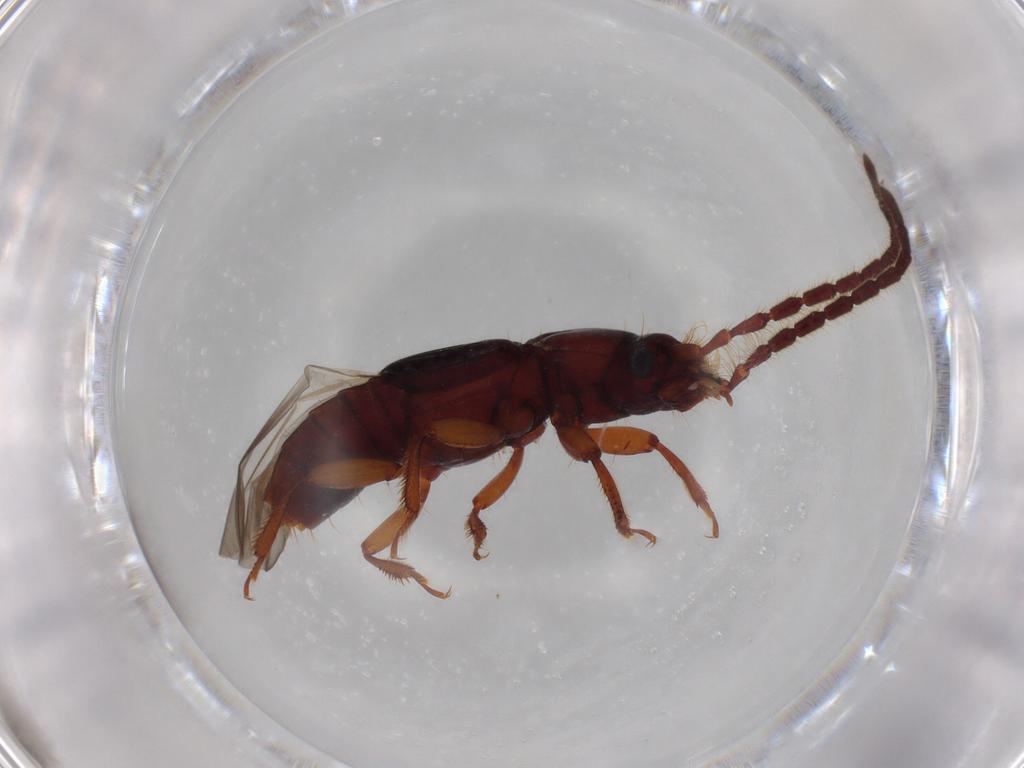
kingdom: Animalia
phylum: Arthropoda
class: Insecta
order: Coleoptera
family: Staphylinidae
